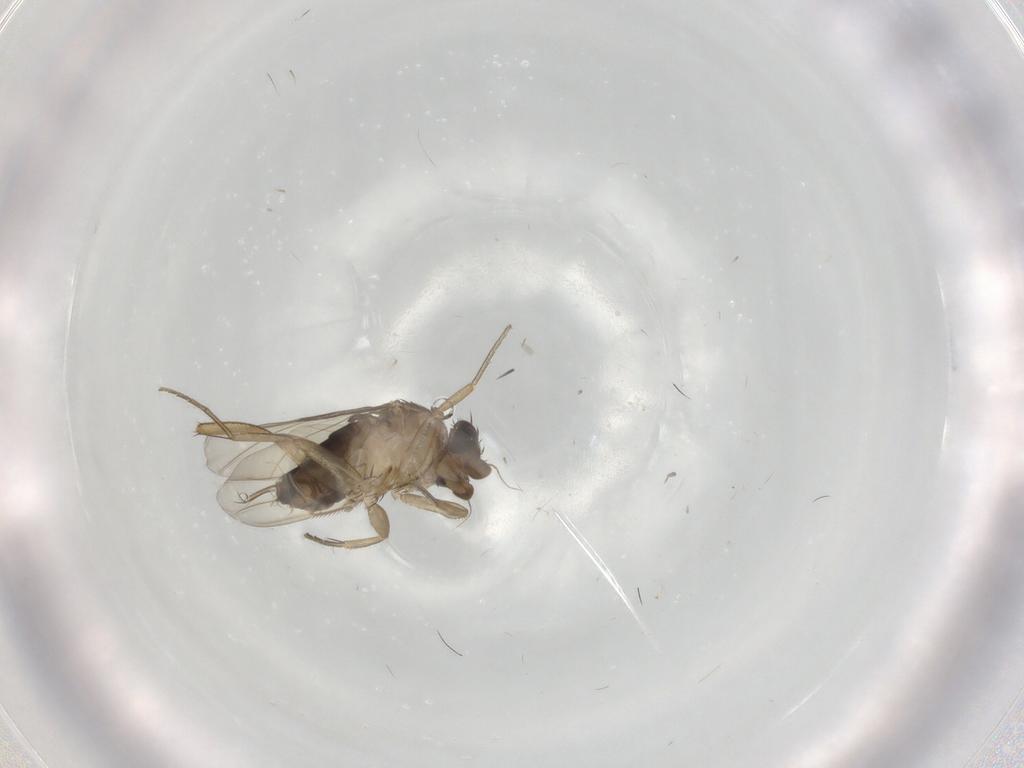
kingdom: Animalia
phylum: Arthropoda
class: Insecta
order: Diptera
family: Phoridae
